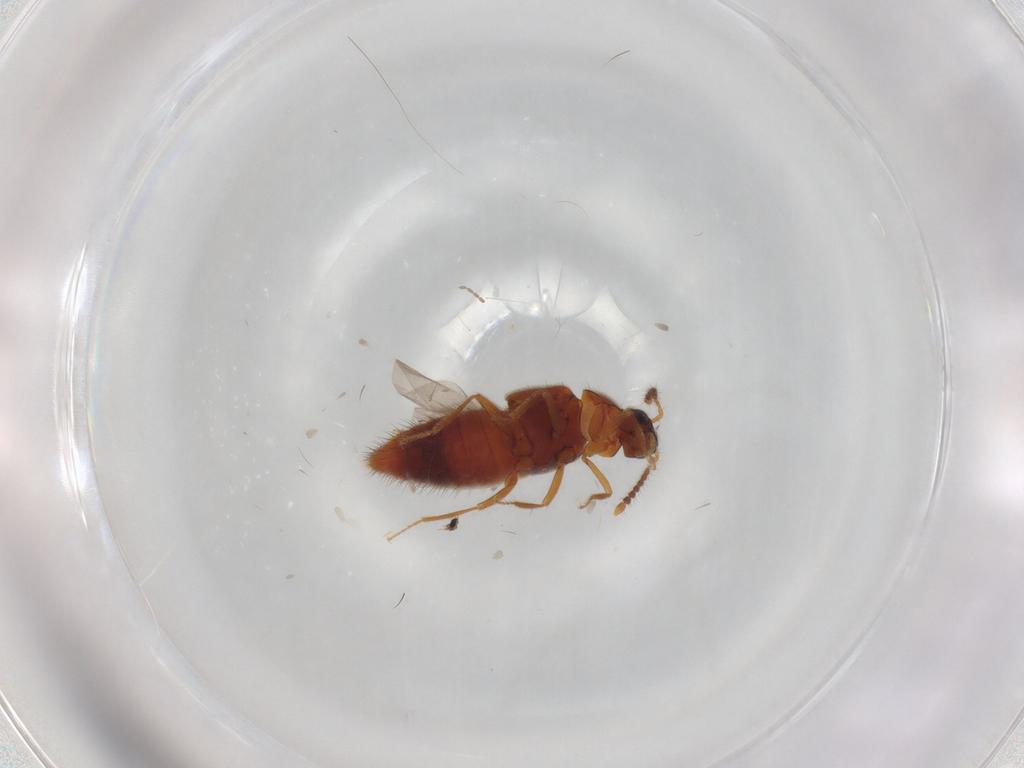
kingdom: Animalia
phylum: Arthropoda
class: Insecta
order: Coleoptera
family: Staphylinidae
